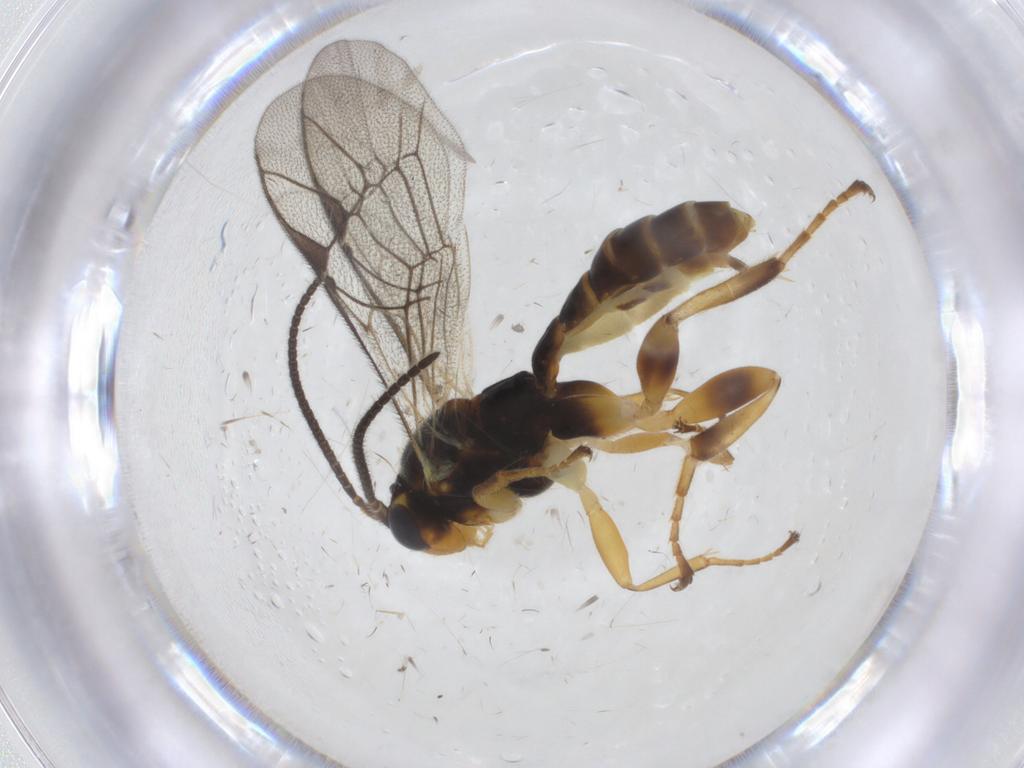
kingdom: Animalia
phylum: Arthropoda
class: Insecta
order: Hymenoptera
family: Ichneumonidae
